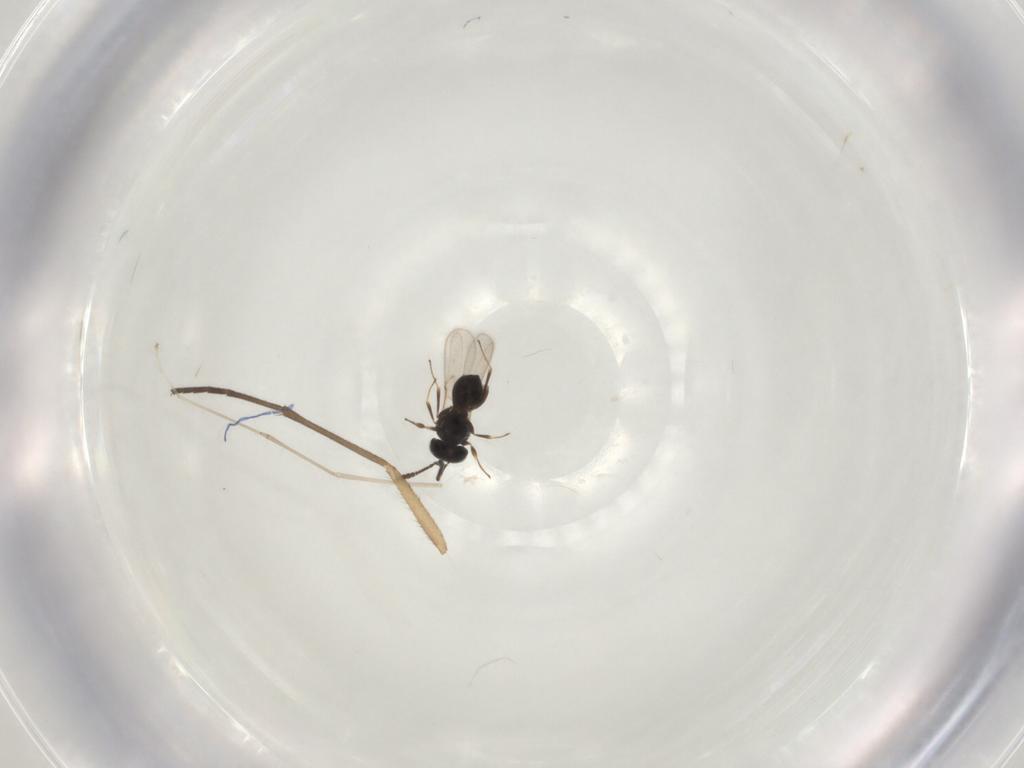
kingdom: Animalia
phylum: Arthropoda
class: Insecta
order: Hymenoptera
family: Scelionidae
